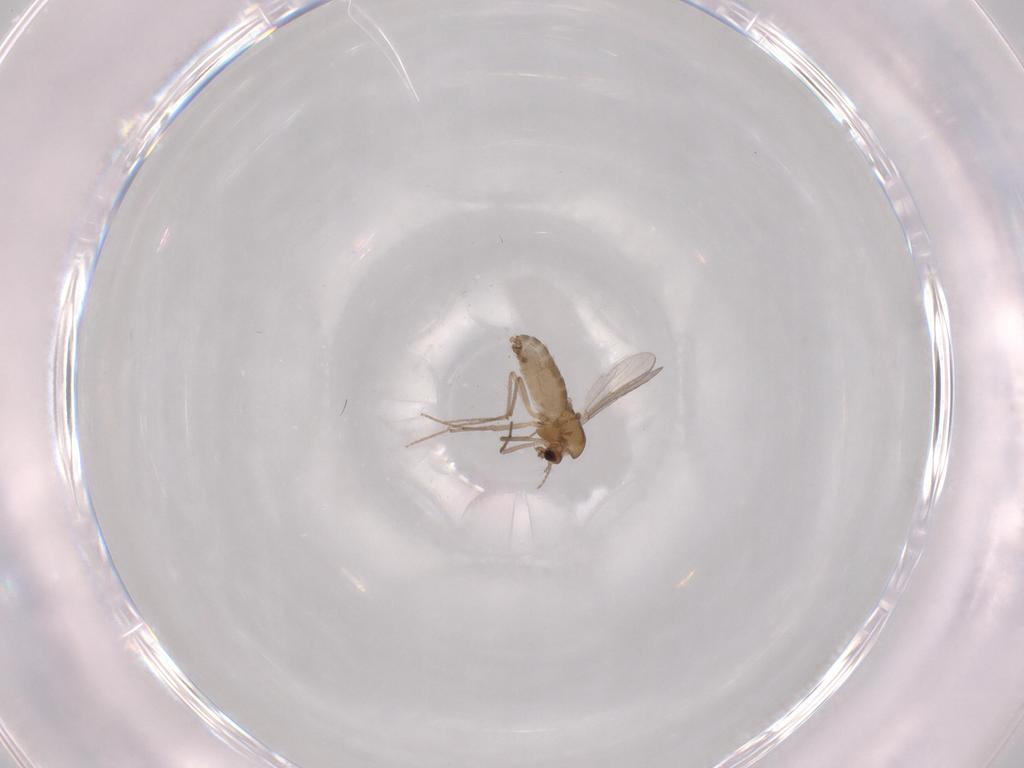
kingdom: Animalia
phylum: Arthropoda
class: Insecta
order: Diptera
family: Chironomidae
